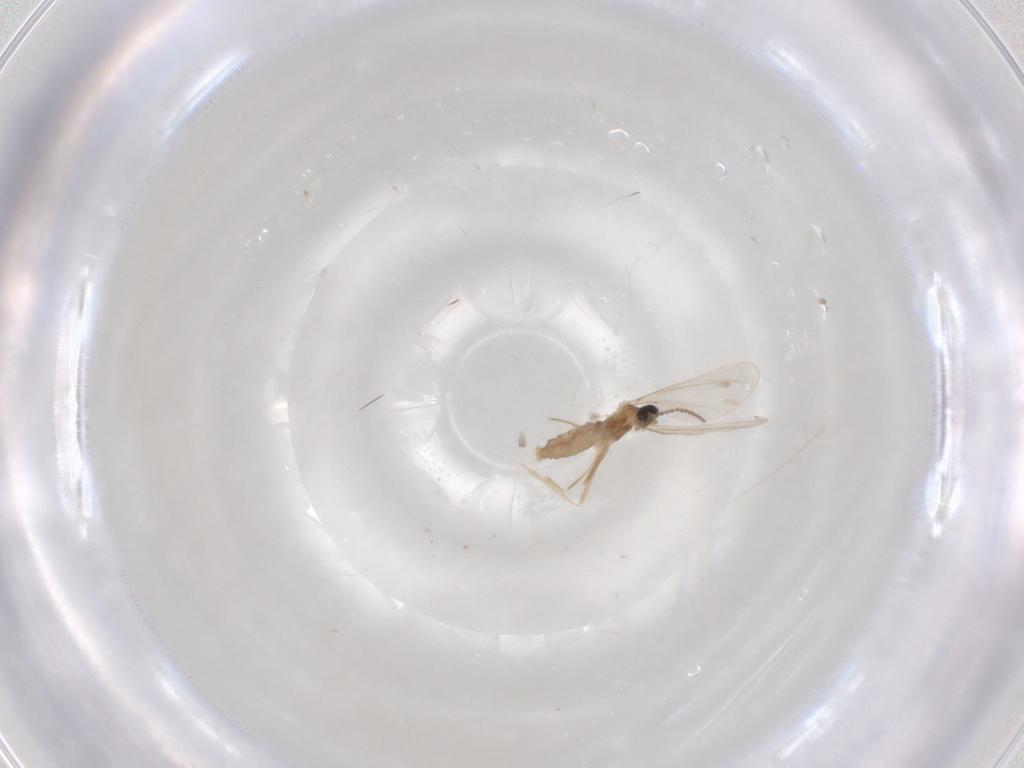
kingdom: Animalia
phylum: Arthropoda
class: Insecta
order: Diptera
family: Cecidomyiidae
